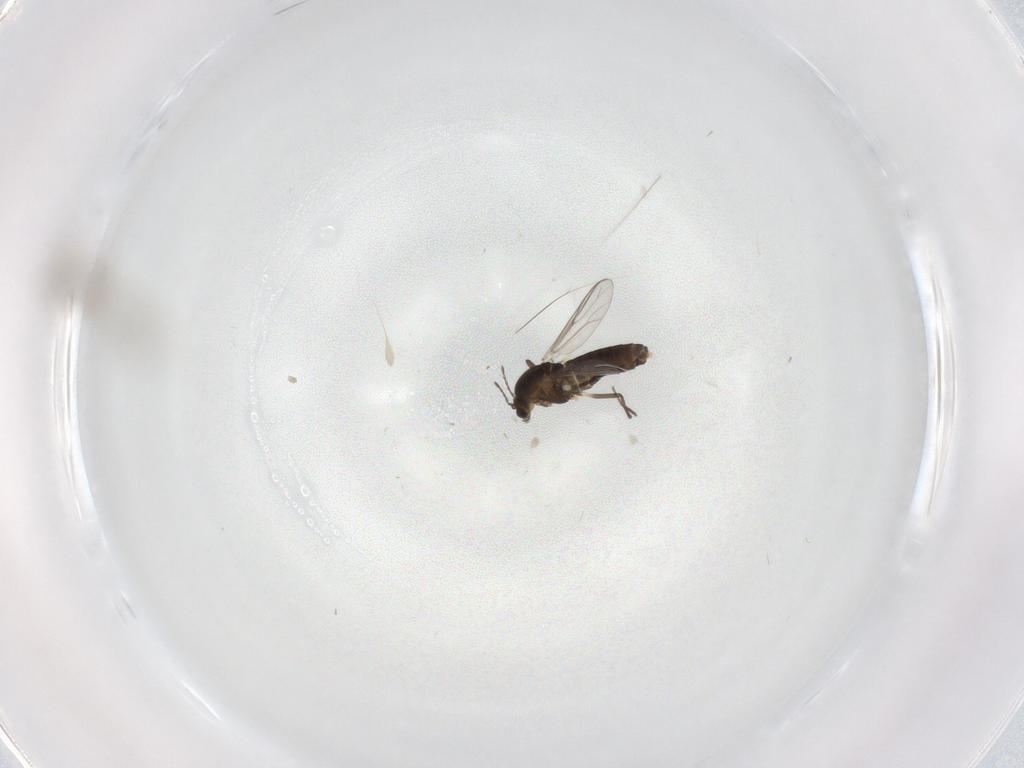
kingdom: Animalia
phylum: Arthropoda
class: Insecta
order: Diptera
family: Chironomidae
